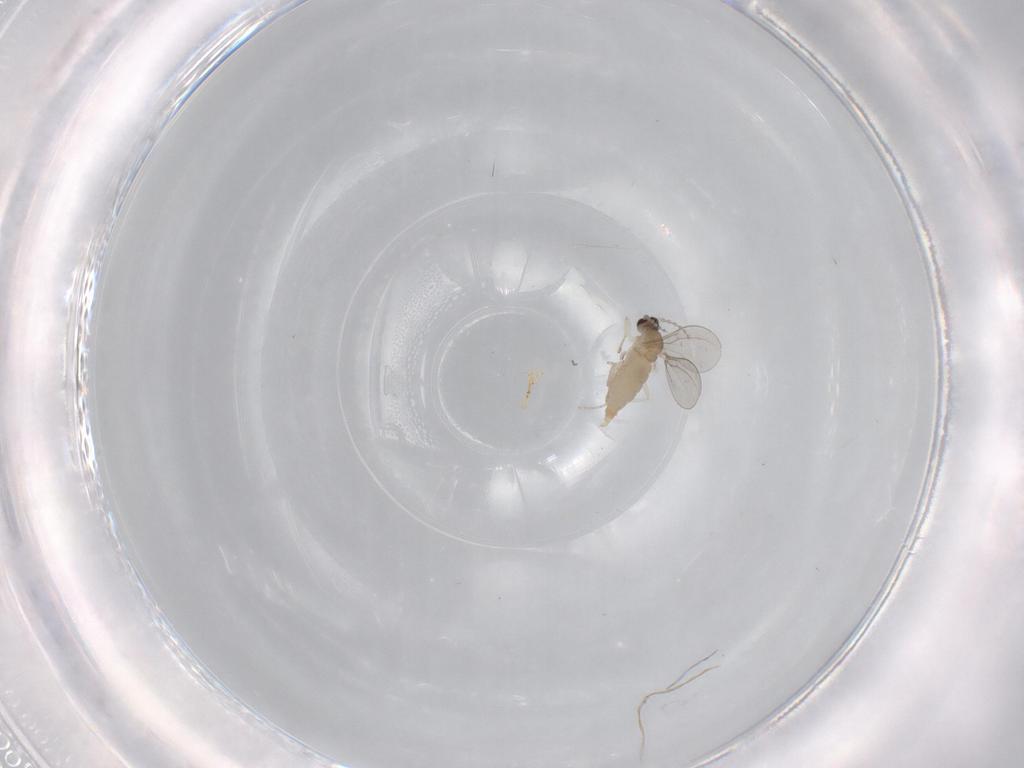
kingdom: Animalia
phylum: Arthropoda
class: Insecta
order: Diptera
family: Cecidomyiidae
